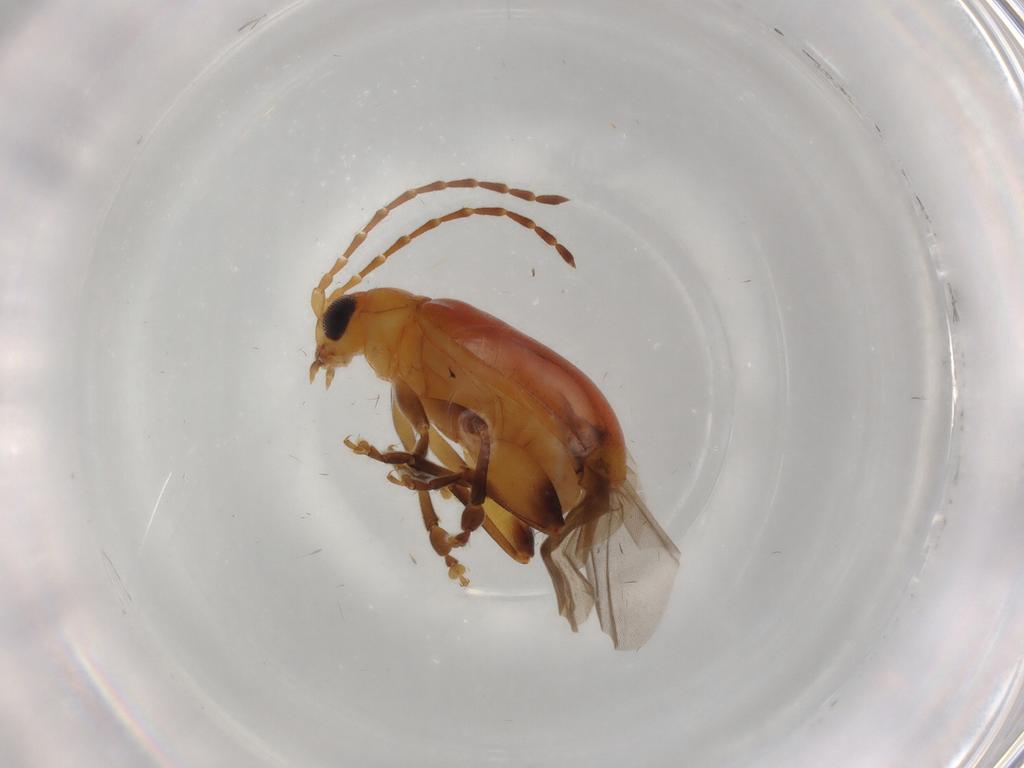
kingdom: Animalia
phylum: Arthropoda
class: Insecta
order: Coleoptera
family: Chrysomelidae
